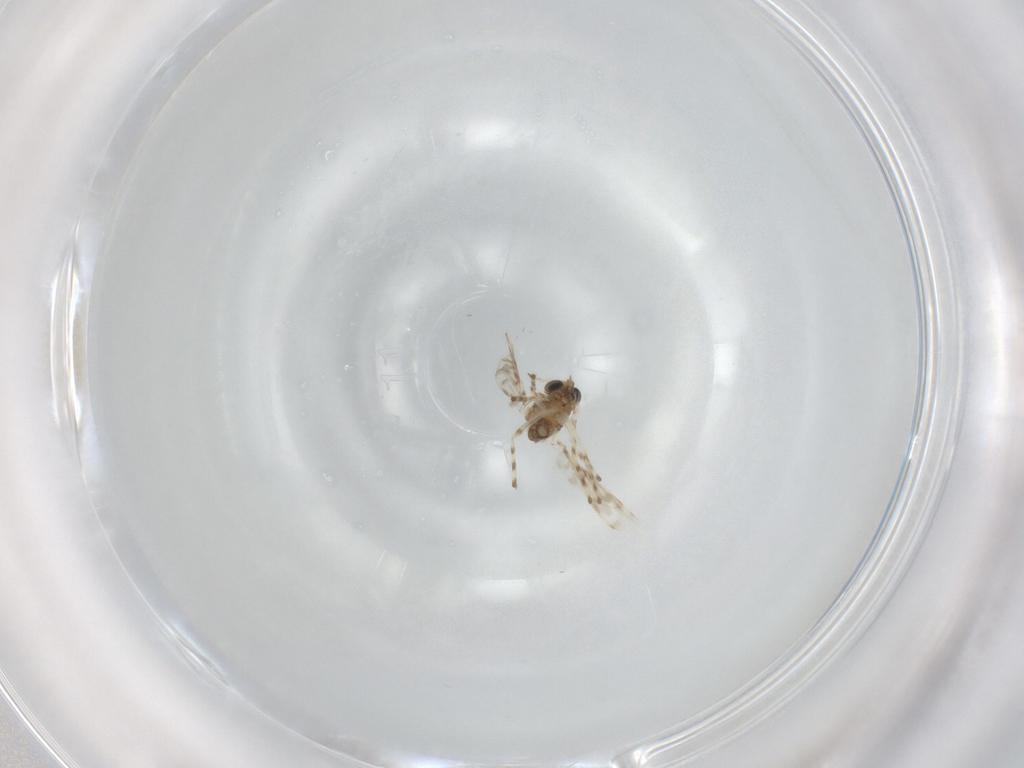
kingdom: Animalia
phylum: Arthropoda
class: Insecta
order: Diptera
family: Chironomidae
